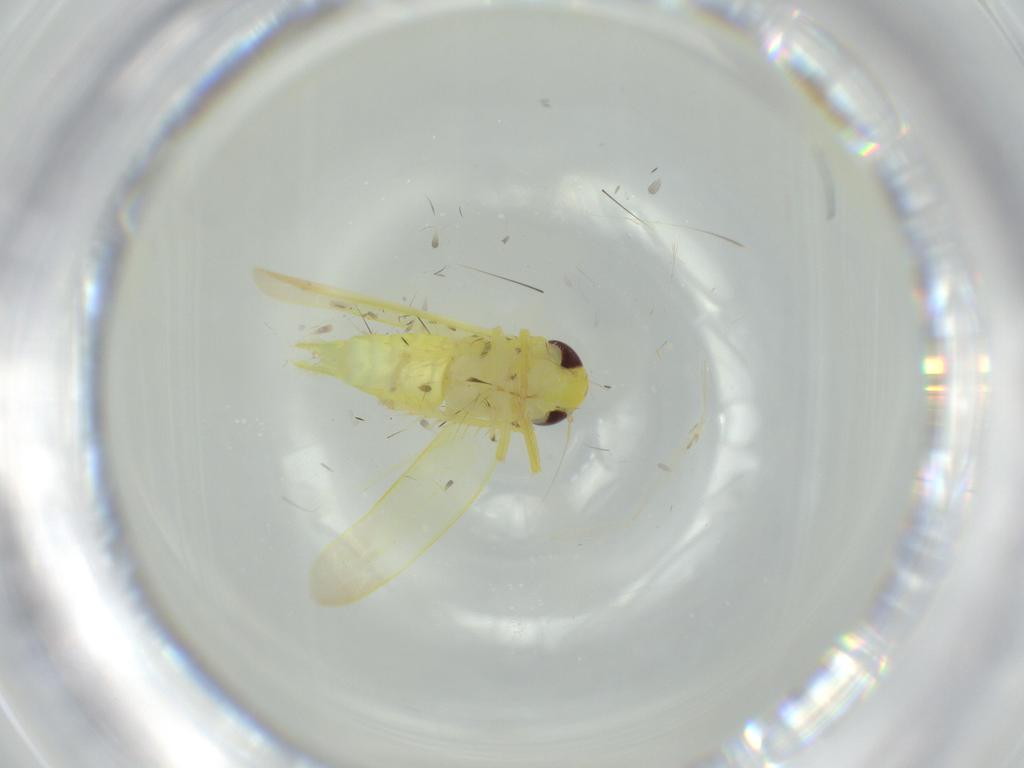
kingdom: Animalia
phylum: Arthropoda
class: Insecta
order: Hemiptera
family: Cicadellidae
